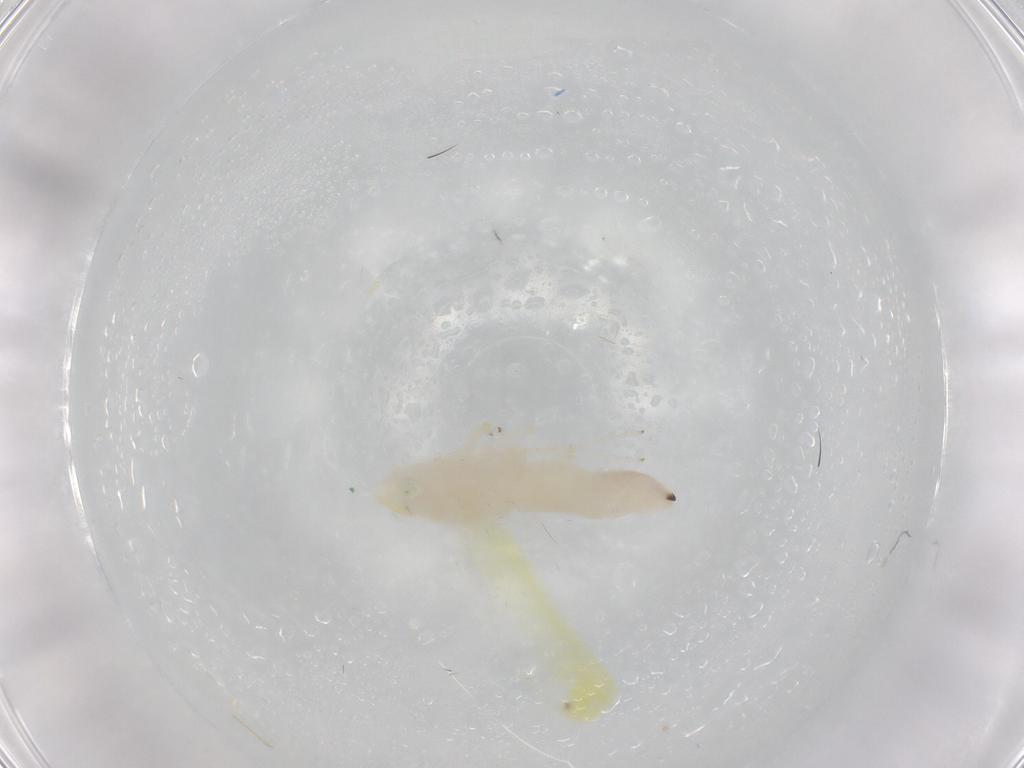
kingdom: Animalia
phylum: Arthropoda
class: Insecta
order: Hemiptera
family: Cicadellidae
